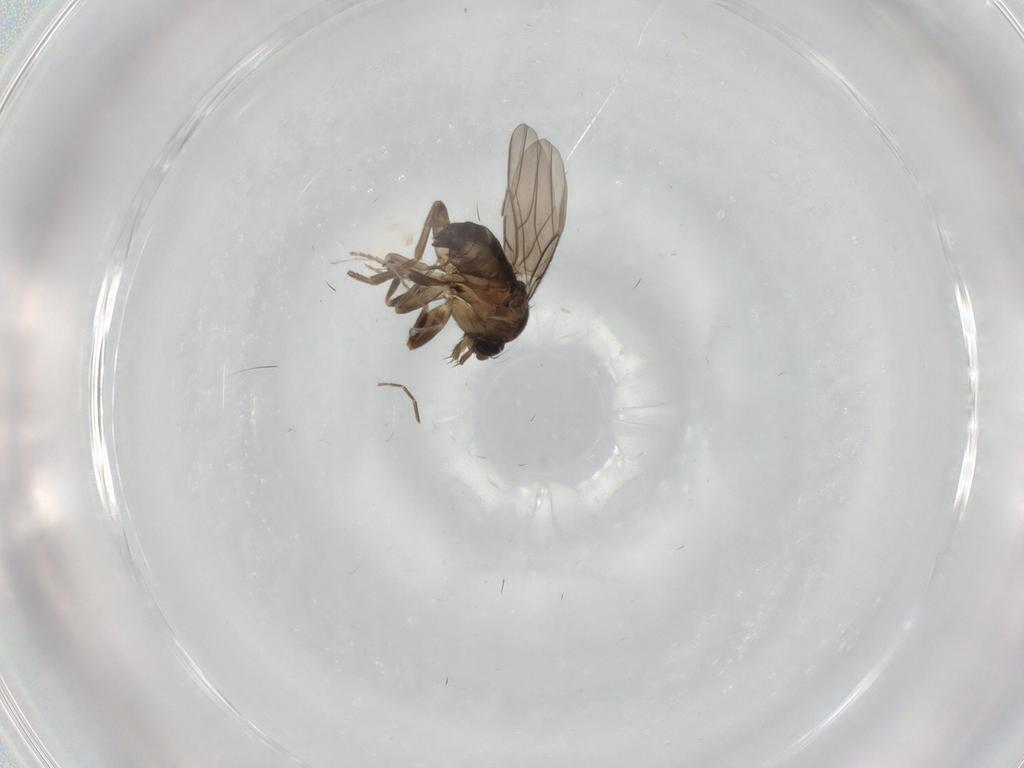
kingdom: Animalia
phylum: Arthropoda
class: Insecta
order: Diptera
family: Cecidomyiidae
